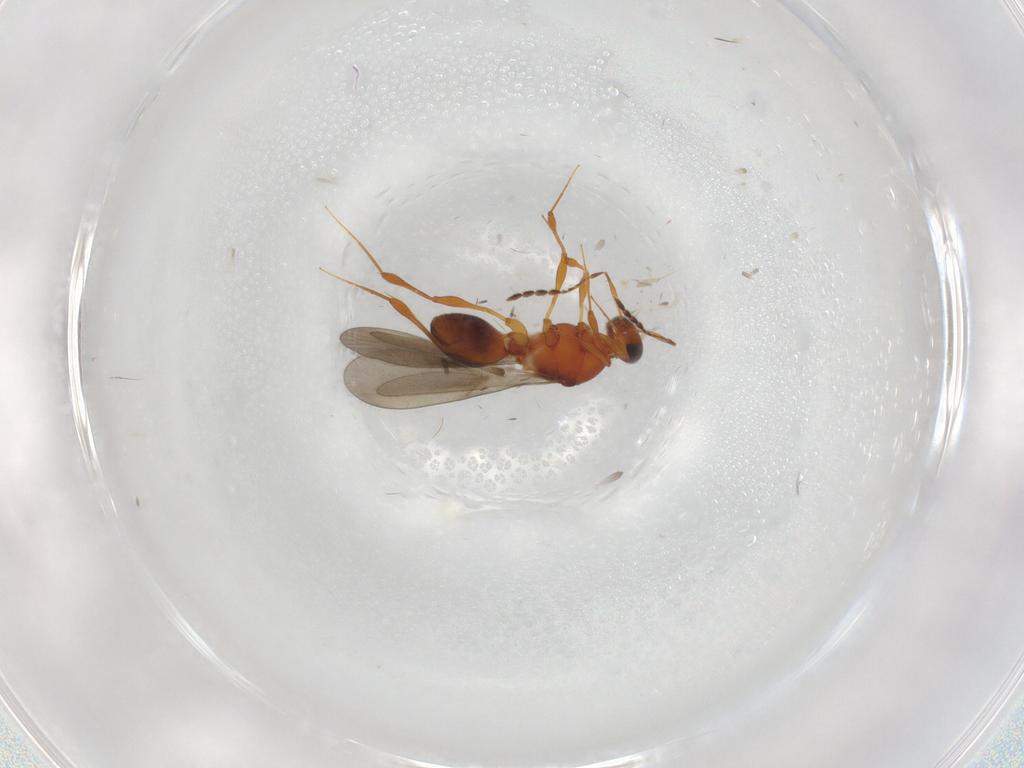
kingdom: Animalia
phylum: Arthropoda
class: Insecta
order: Hymenoptera
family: Platygastridae
